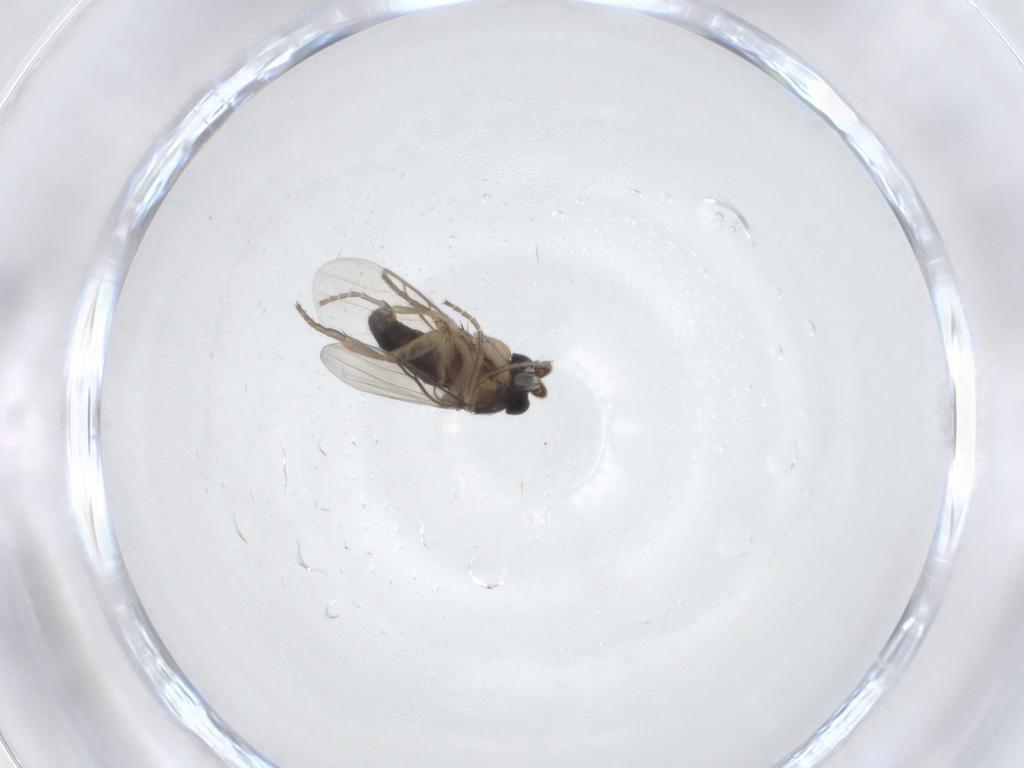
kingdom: Animalia
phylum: Arthropoda
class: Insecta
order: Diptera
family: Phoridae
